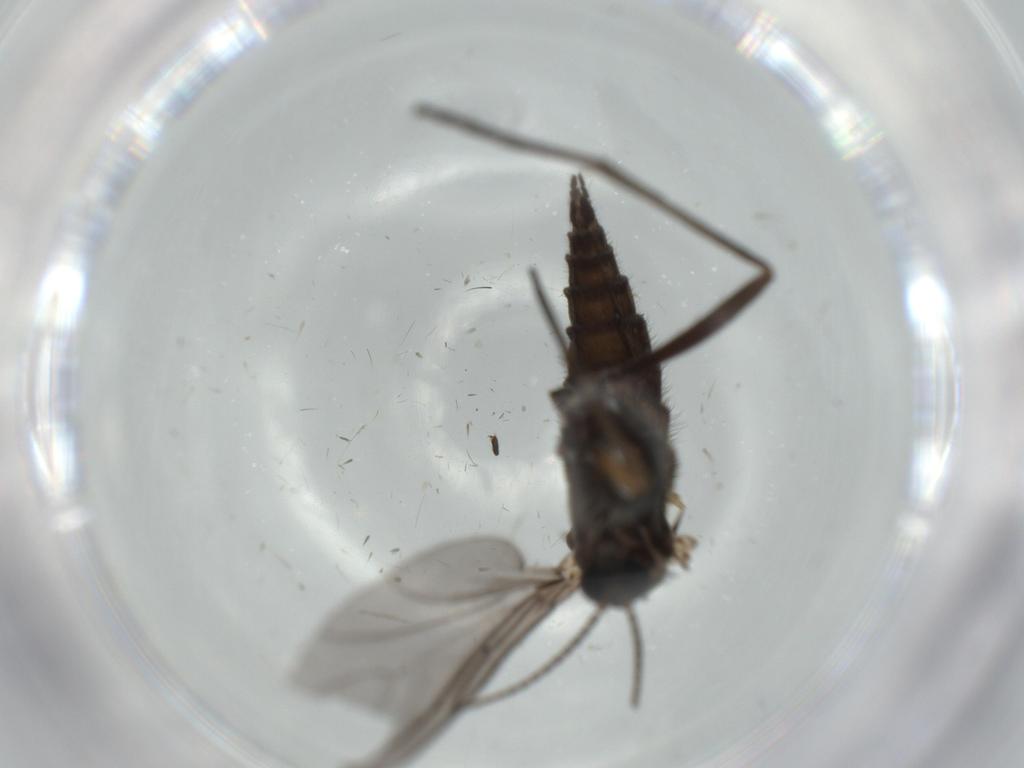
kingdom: Animalia
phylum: Arthropoda
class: Insecta
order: Diptera
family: Sciaridae
